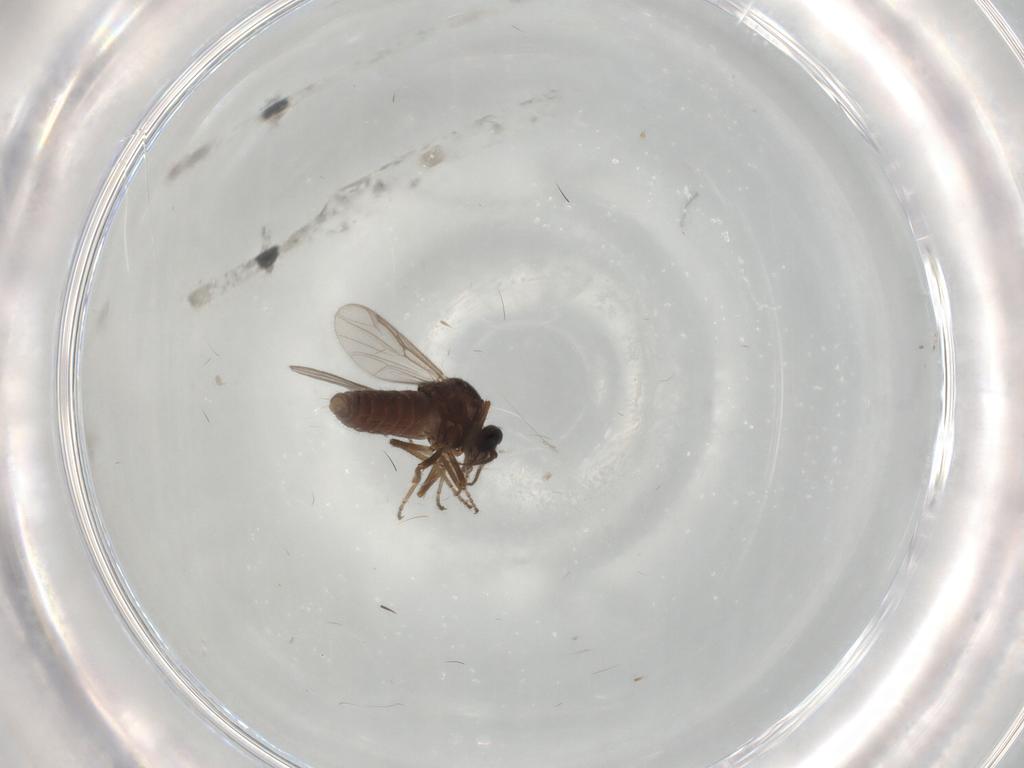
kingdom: Animalia
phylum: Arthropoda
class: Insecta
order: Diptera
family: Ceratopogonidae
